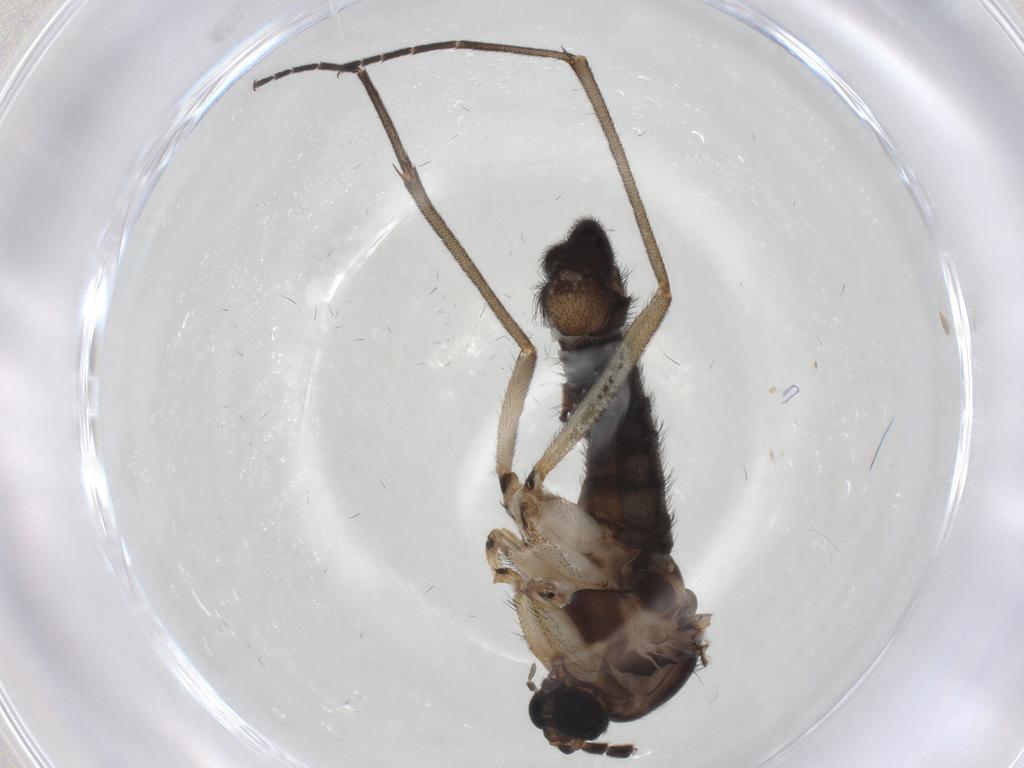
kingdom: Animalia
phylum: Arthropoda
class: Insecta
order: Diptera
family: Sciaridae
